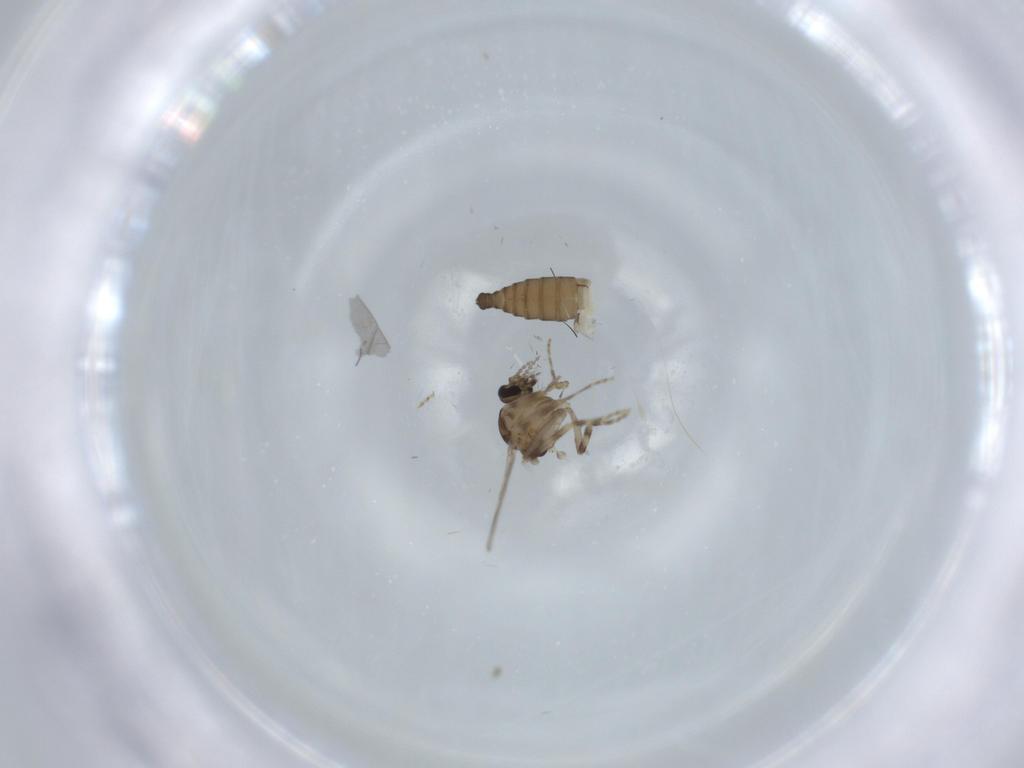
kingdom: Animalia
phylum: Arthropoda
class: Insecta
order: Diptera
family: Ceratopogonidae
